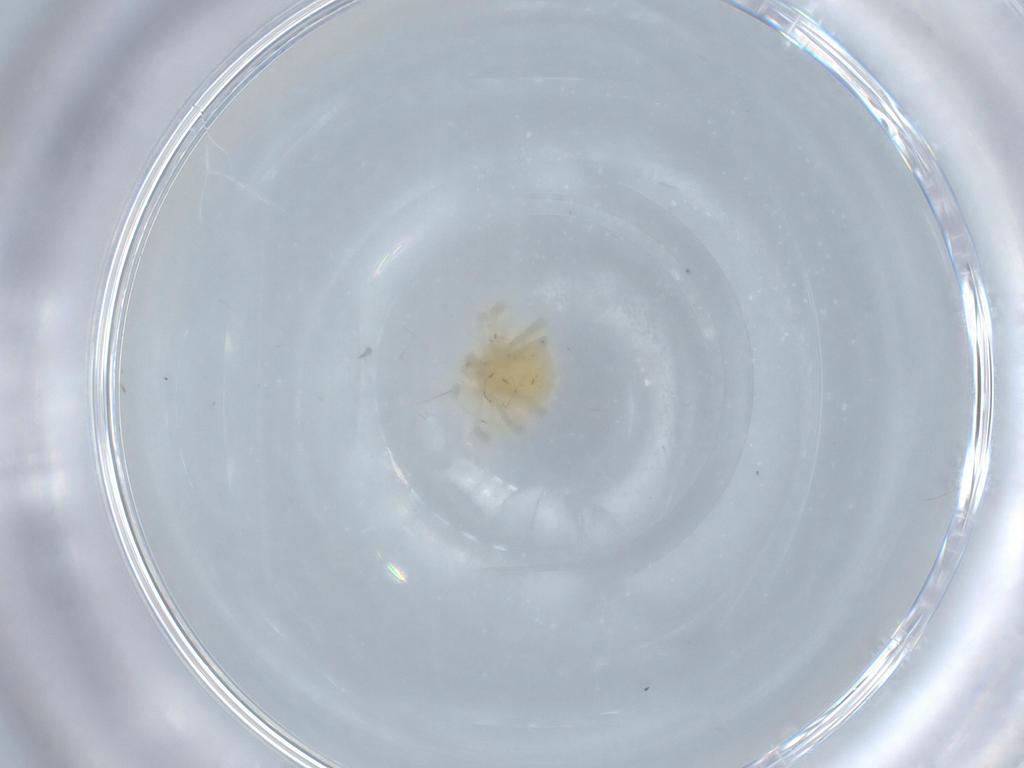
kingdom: Animalia
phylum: Arthropoda
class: Arachnida
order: Trombidiformes
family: Anystidae
